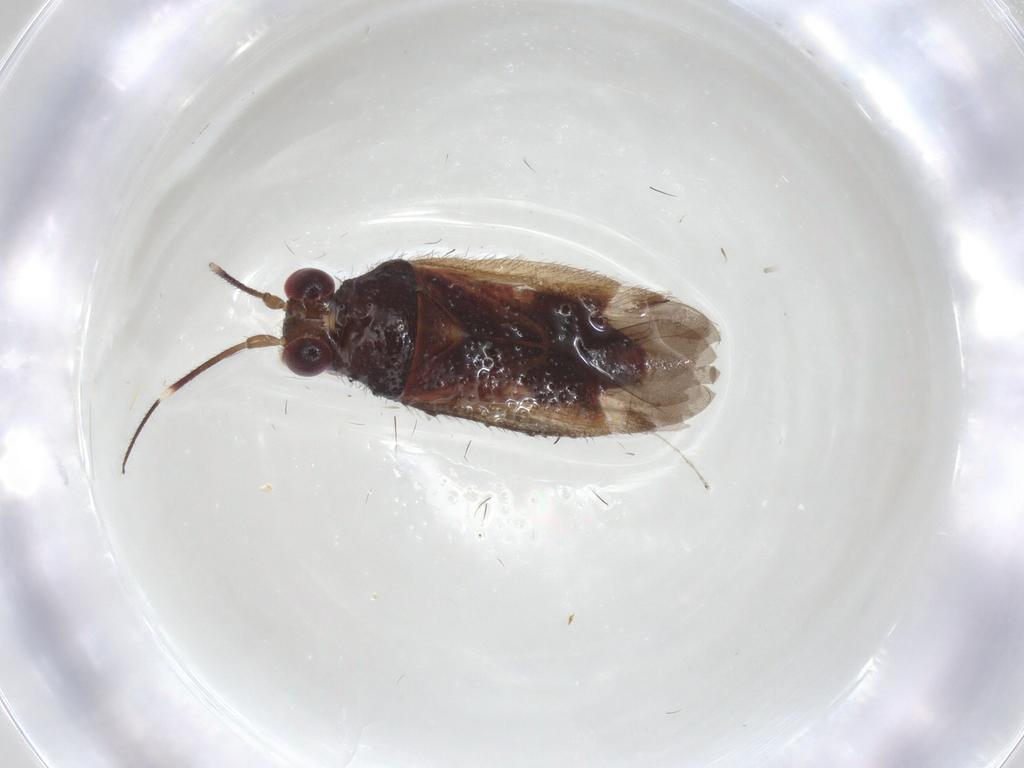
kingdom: Animalia
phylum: Arthropoda
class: Insecta
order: Hemiptera
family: Miridae
